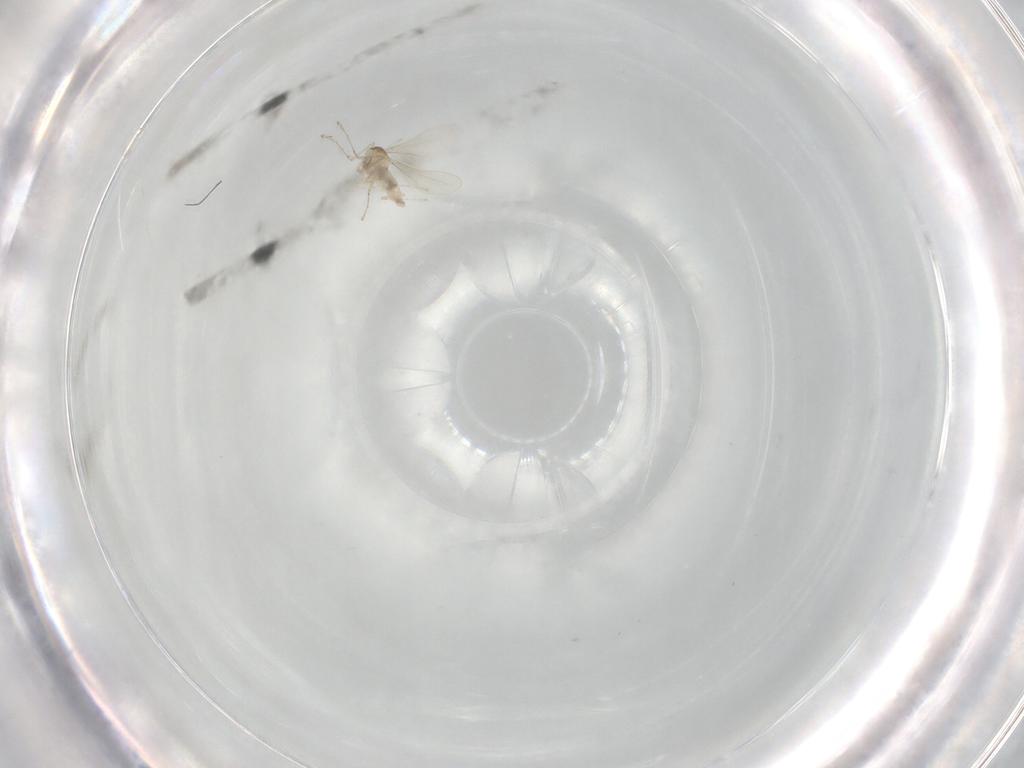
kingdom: Animalia
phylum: Arthropoda
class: Insecta
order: Diptera
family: Cecidomyiidae
